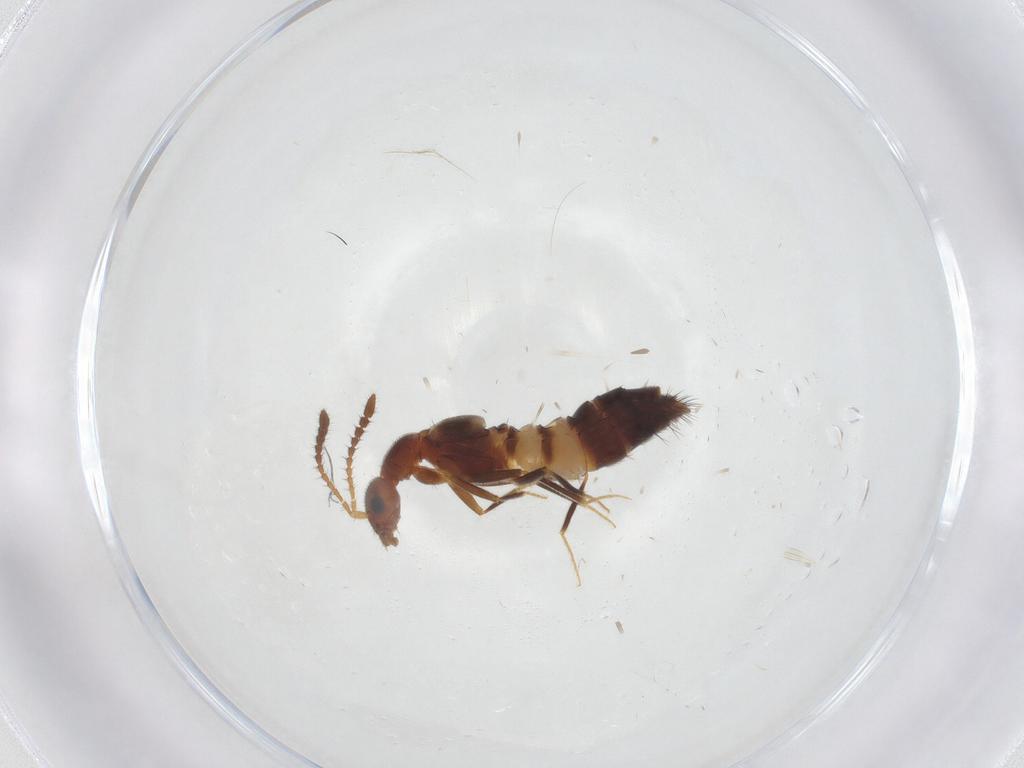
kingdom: Animalia
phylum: Arthropoda
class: Insecta
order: Coleoptera
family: Staphylinidae
